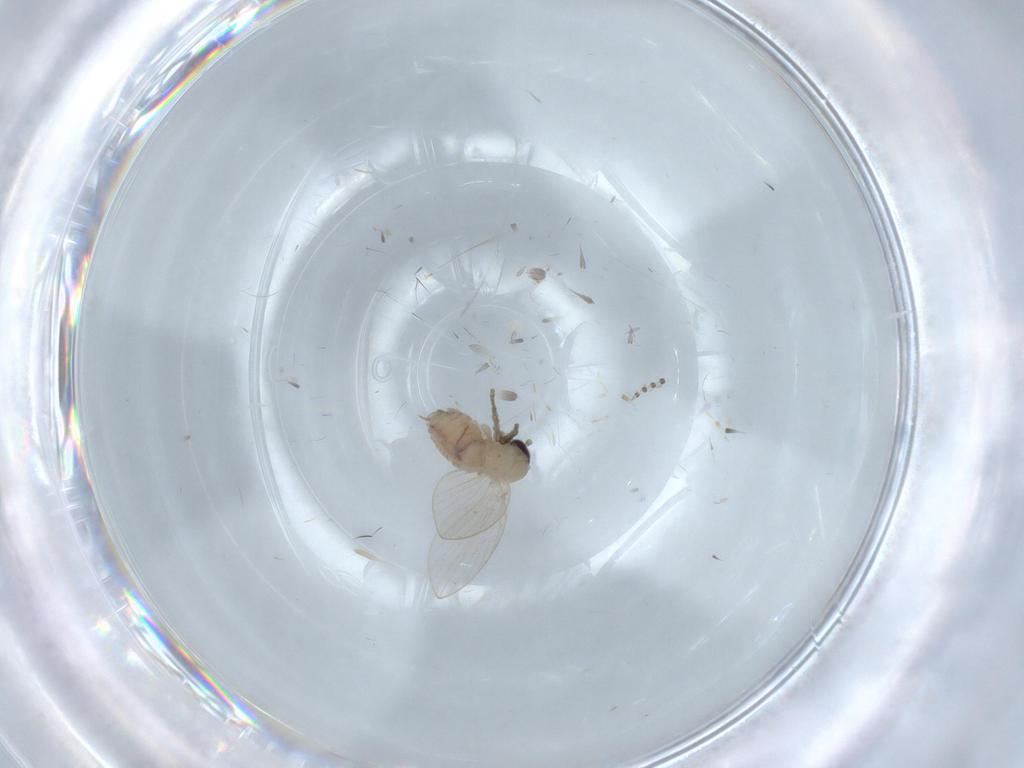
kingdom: Animalia
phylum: Arthropoda
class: Insecta
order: Diptera
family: Psychodidae
